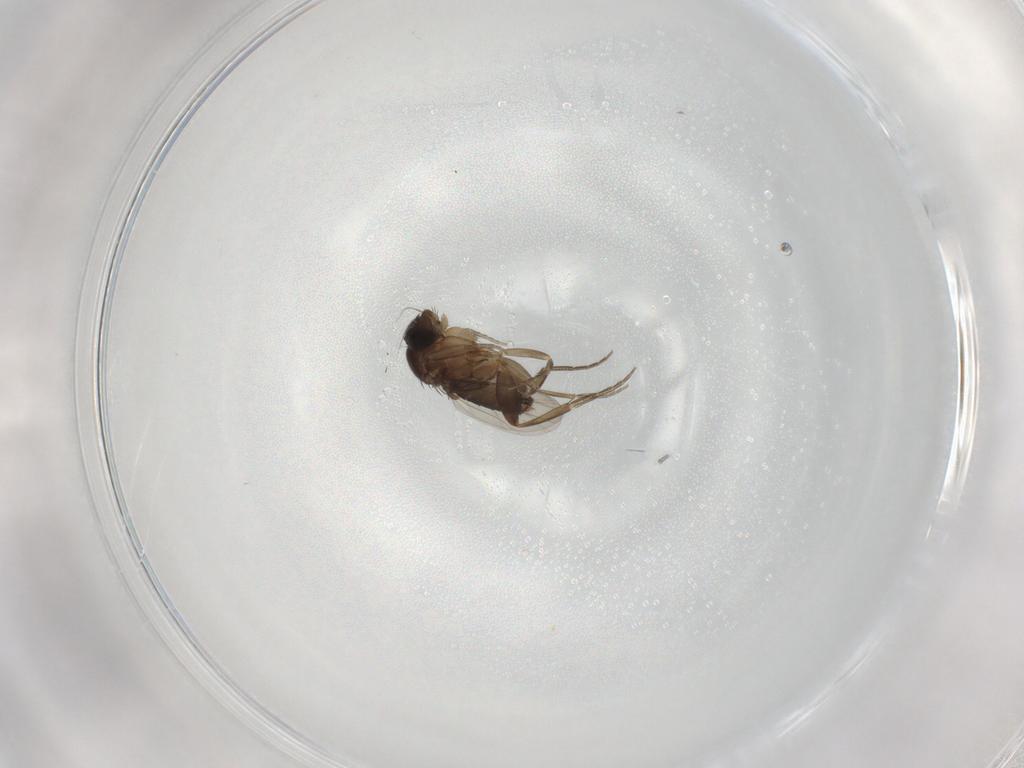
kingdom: Animalia
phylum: Arthropoda
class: Insecta
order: Diptera
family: Phoridae
